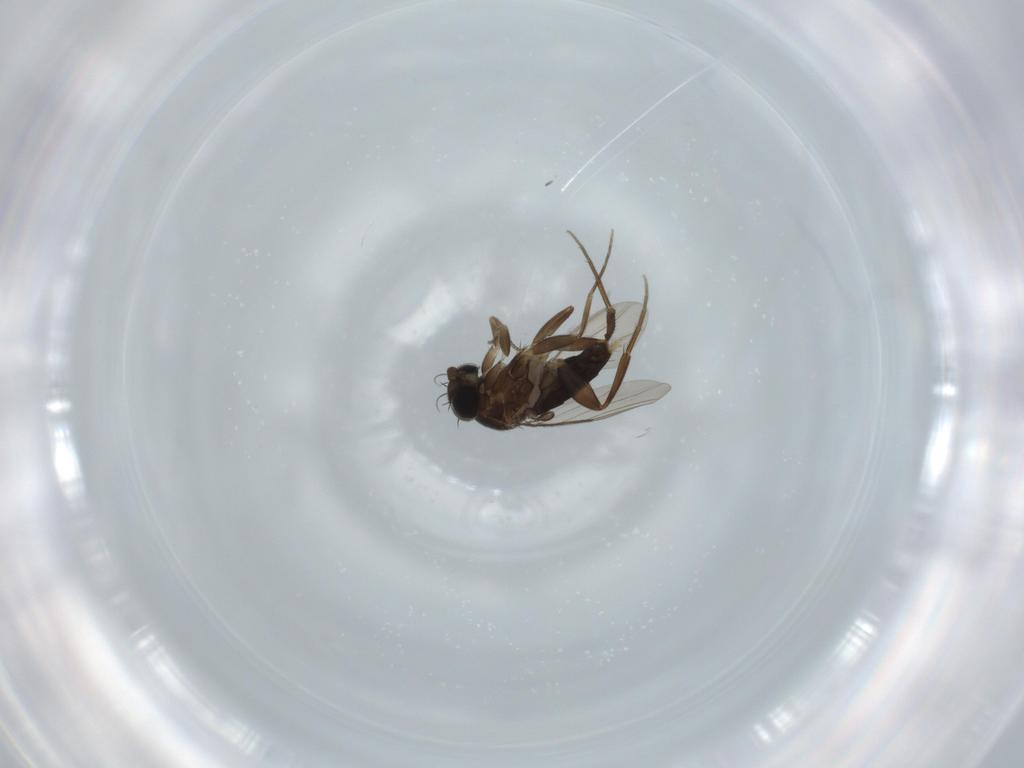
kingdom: Animalia
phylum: Arthropoda
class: Insecta
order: Diptera
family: Phoridae
